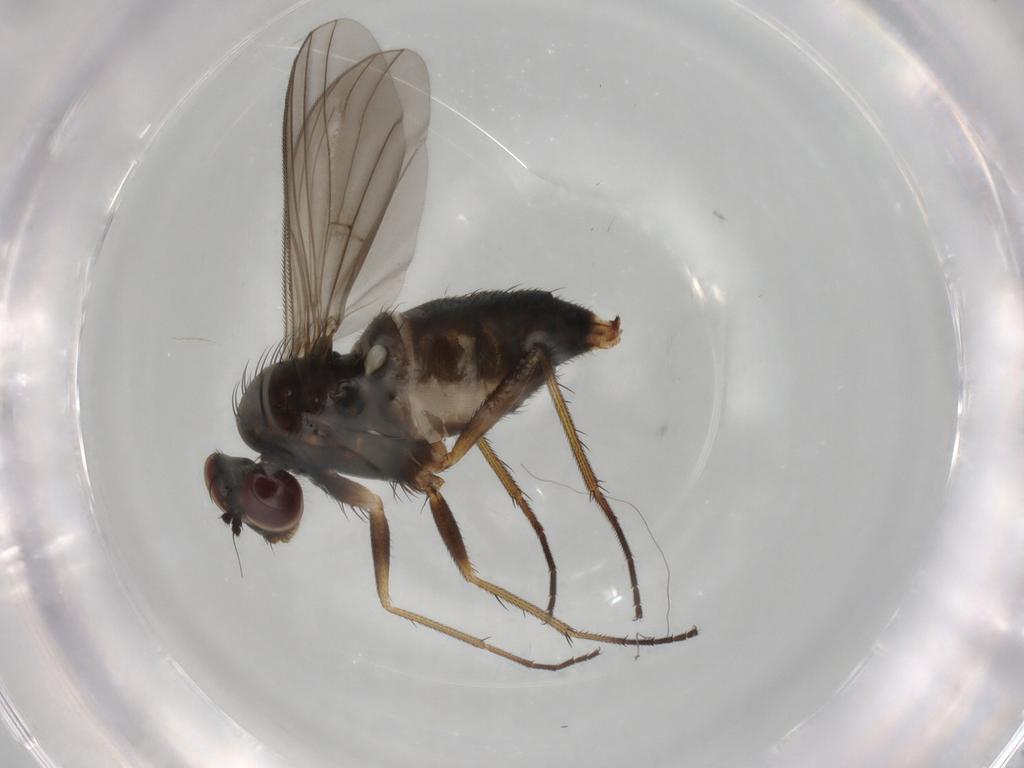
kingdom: Animalia
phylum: Arthropoda
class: Insecta
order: Diptera
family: Dolichopodidae
